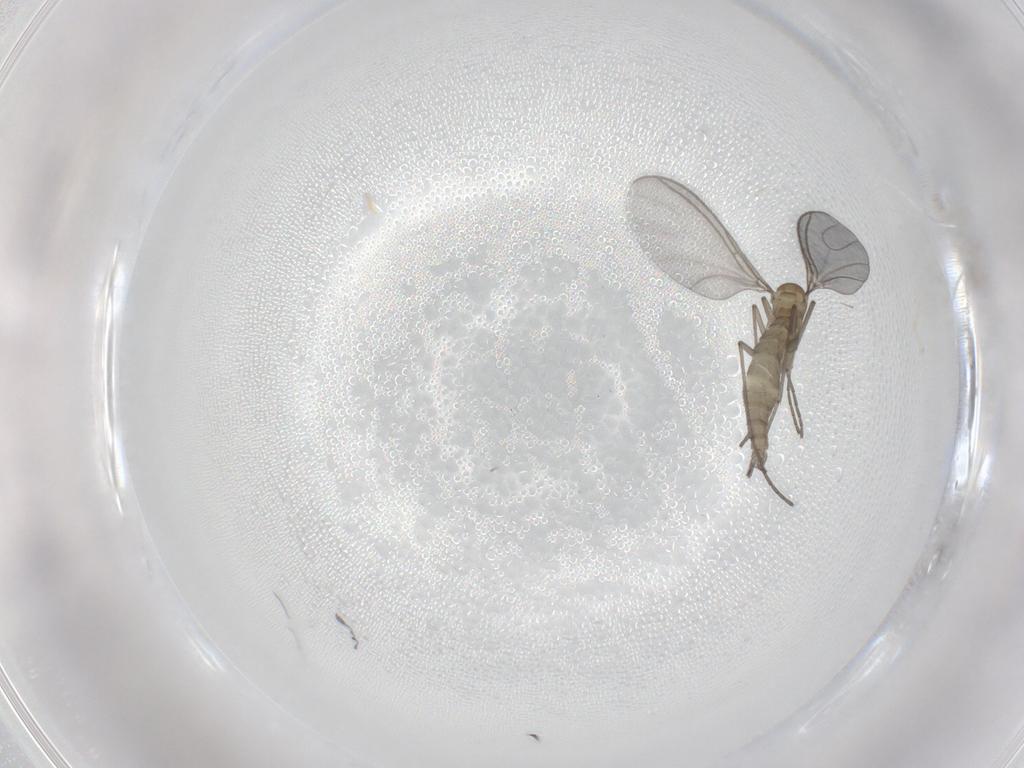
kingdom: Animalia
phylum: Arthropoda
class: Insecta
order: Diptera
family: Sciaridae
